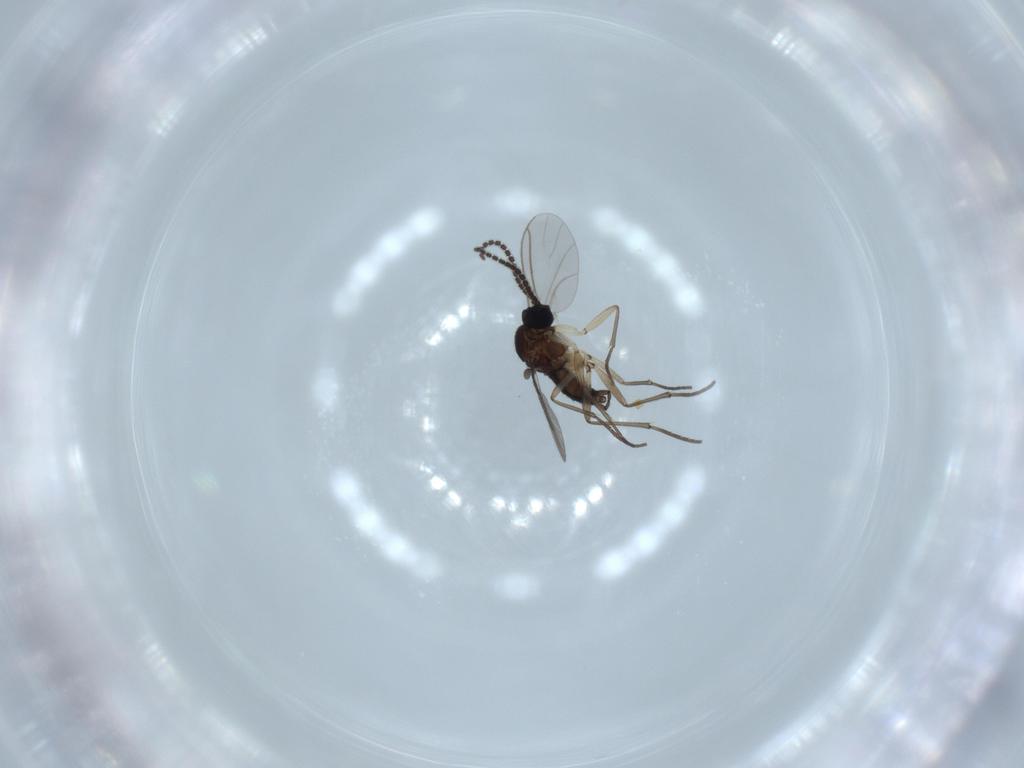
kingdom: Animalia
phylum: Arthropoda
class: Insecta
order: Diptera
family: Sciaridae
